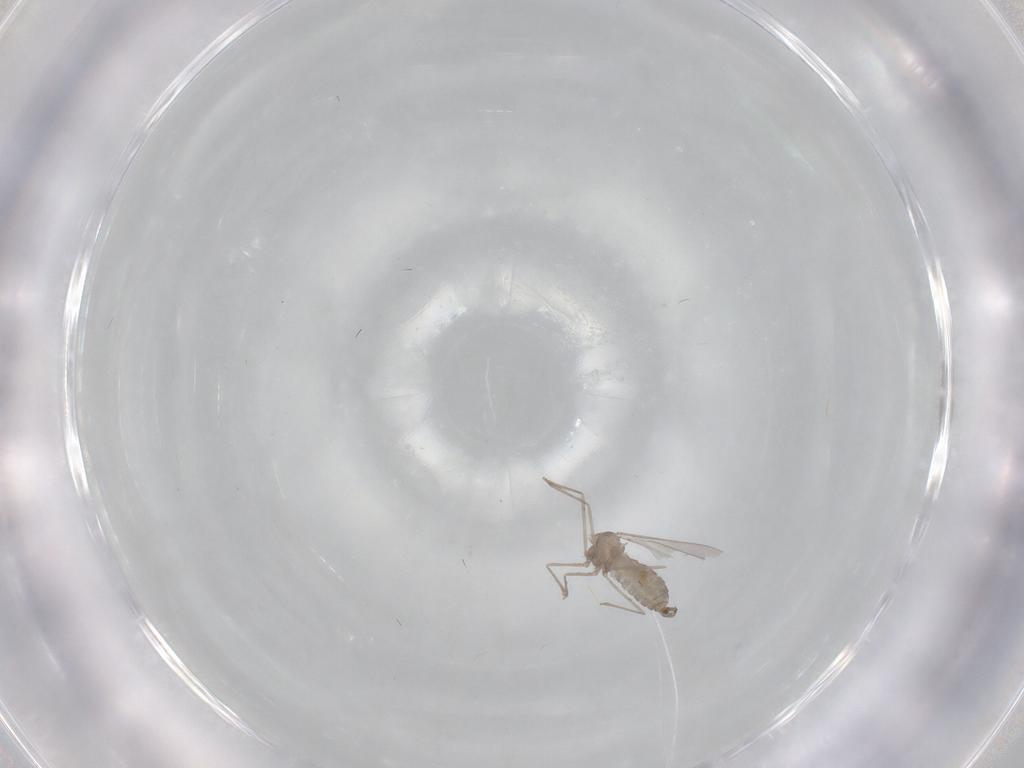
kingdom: Animalia
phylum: Arthropoda
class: Insecta
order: Diptera
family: Cecidomyiidae
